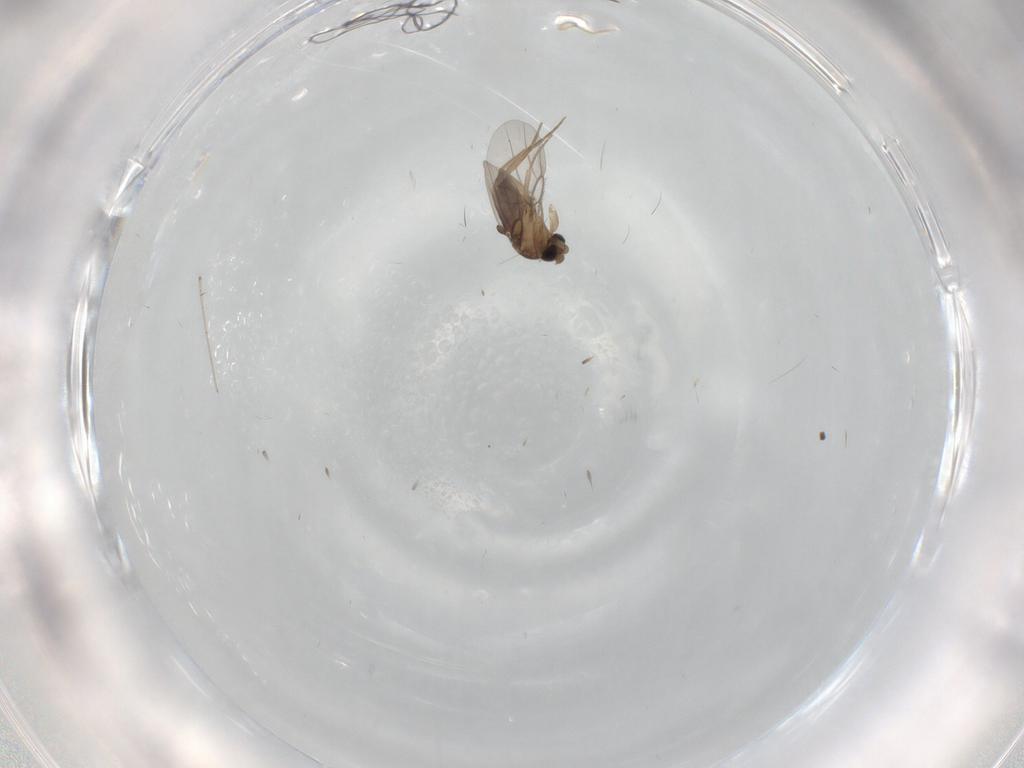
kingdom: Animalia
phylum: Arthropoda
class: Insecta
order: Diptera
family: Cecidomyiidae
